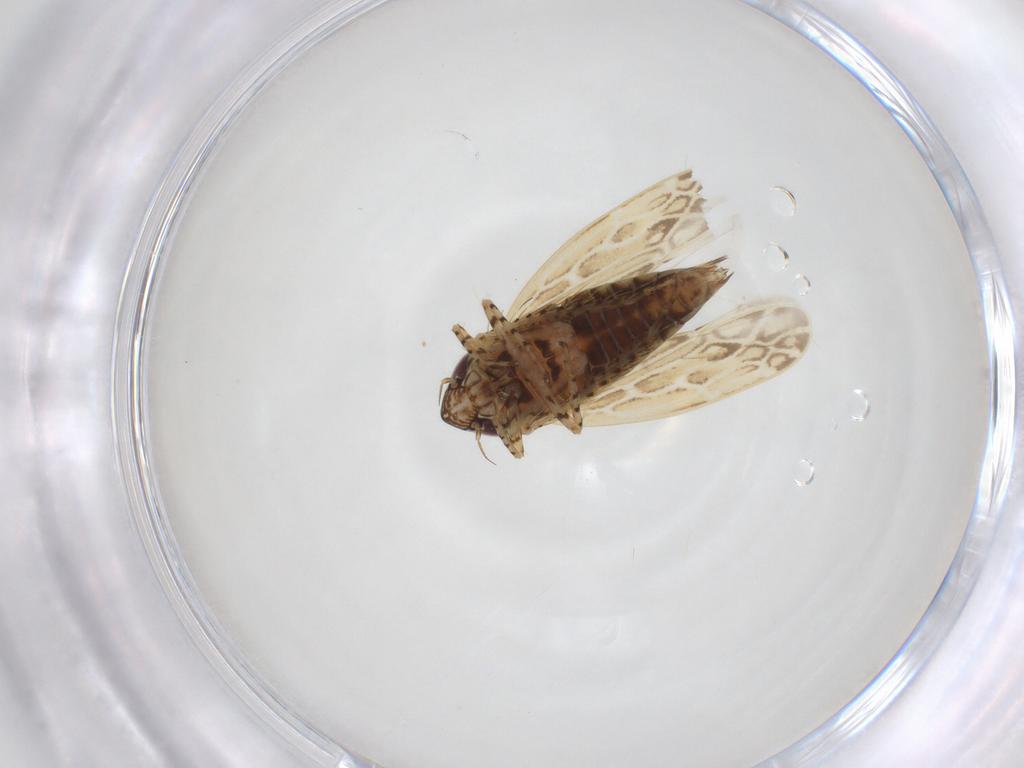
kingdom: Animalia
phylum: Arthropoda
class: Insecta
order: Hemiptera
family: Cicadellidae
